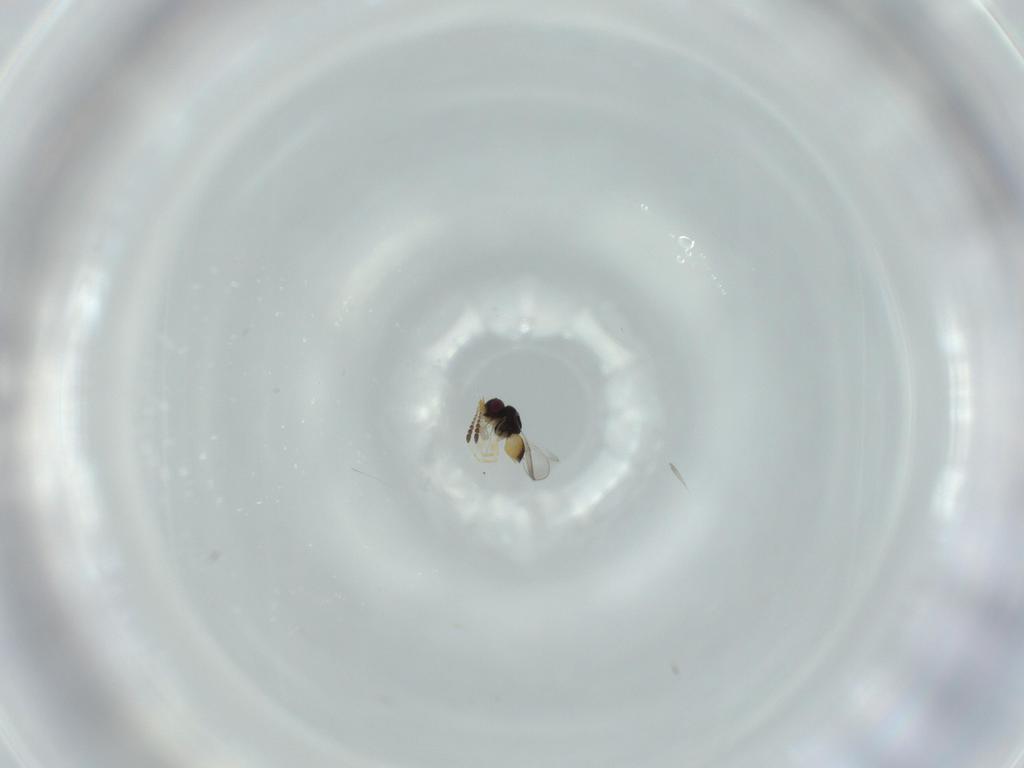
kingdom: Animalia
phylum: Arthropoda
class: Insecta
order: Hymenoptera
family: Ceraphronidae
